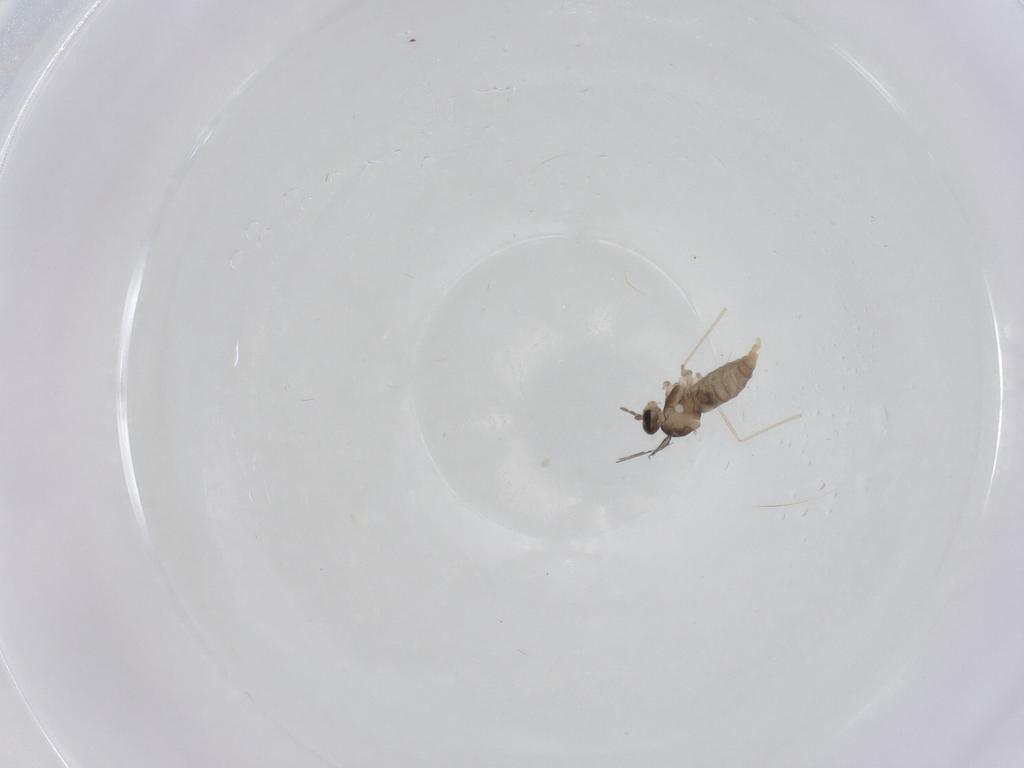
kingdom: Animalia
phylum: Arthropoda
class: Insecta
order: Diptera
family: Cecidomyiidae
